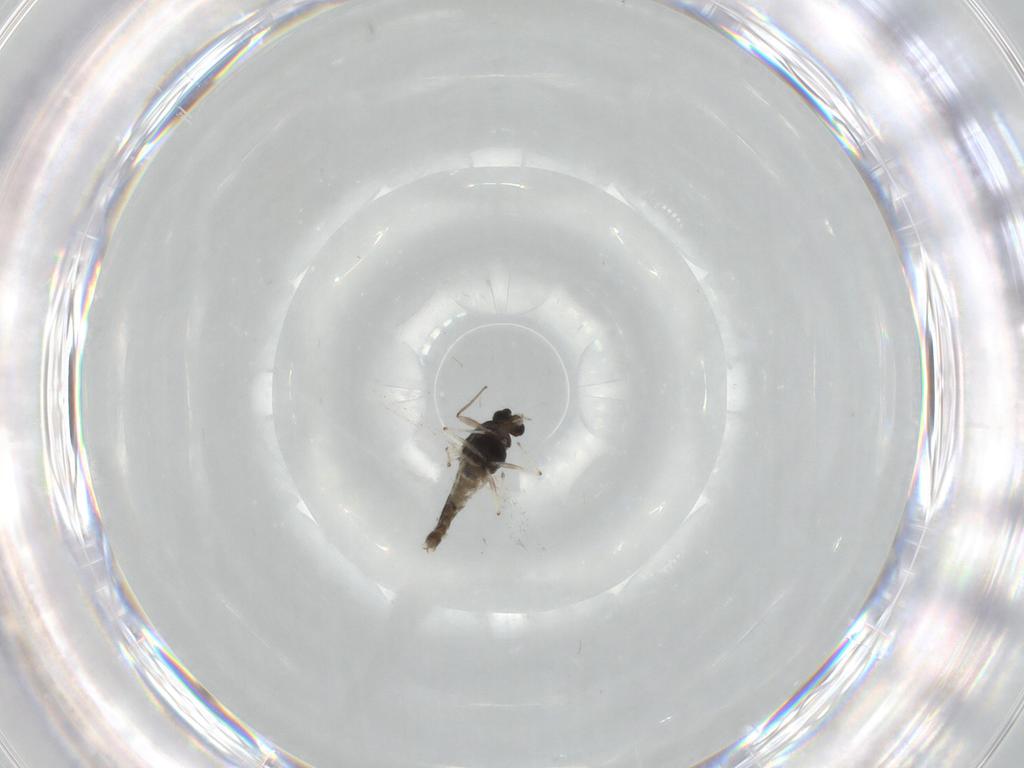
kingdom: Animalia
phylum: Arthropoda
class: Insecta
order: Diptera
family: Chironomidae
